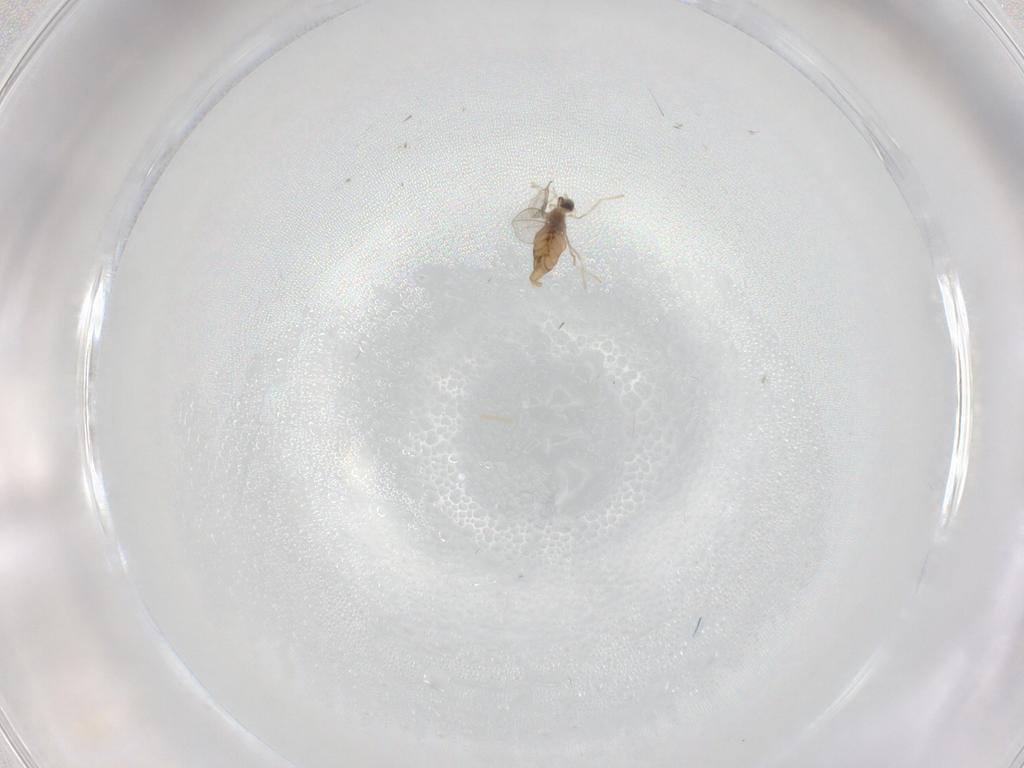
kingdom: Animalia
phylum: Arthropoda
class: Insecta
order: Diptera
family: Cecidomyiidae
